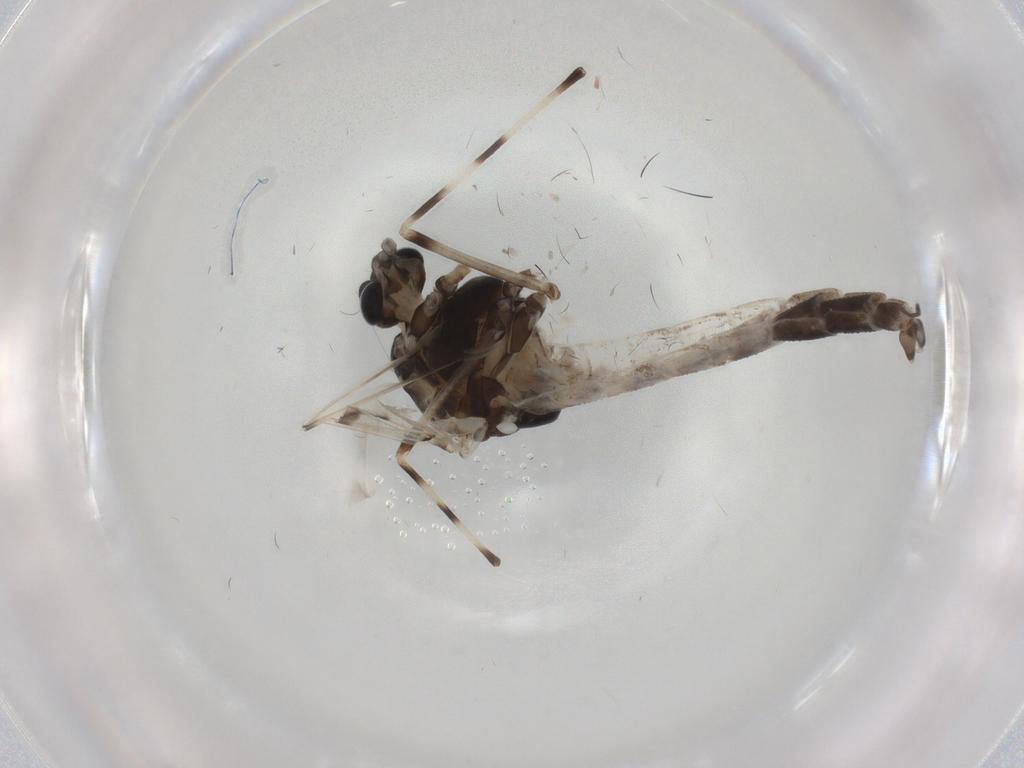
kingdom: Animalia
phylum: Arthropoda
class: Insecta
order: Diptera
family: Chironomidae
